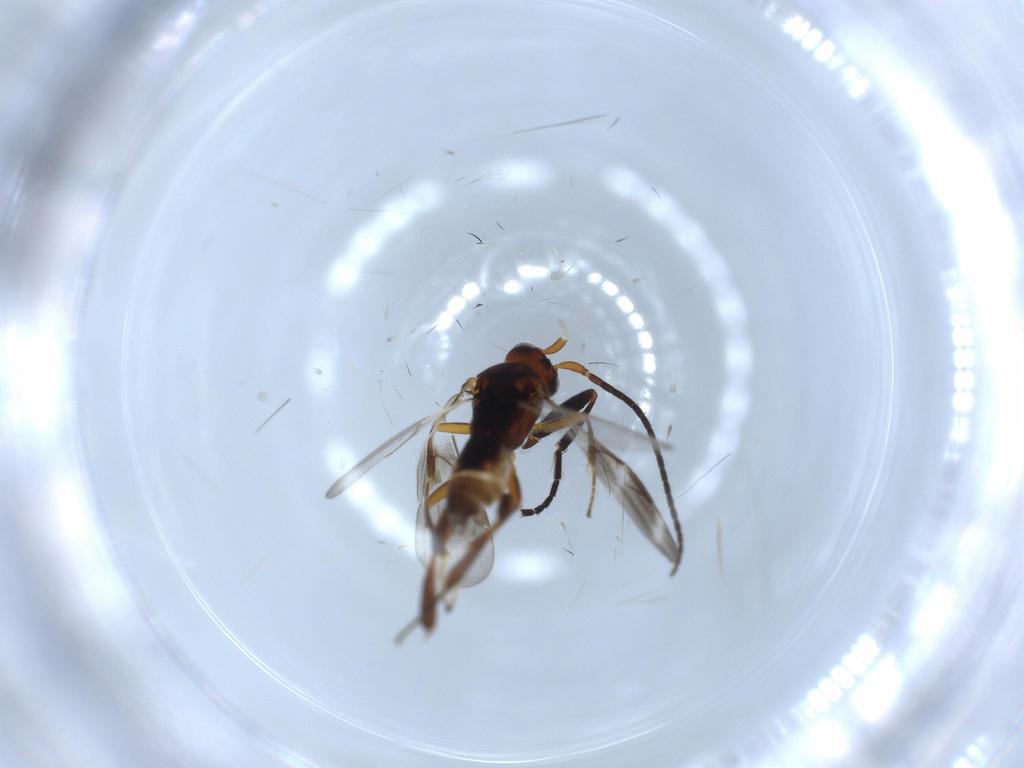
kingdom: Animalia
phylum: Arthropoda
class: Insecta
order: Hymenoptera
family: Braconidae
